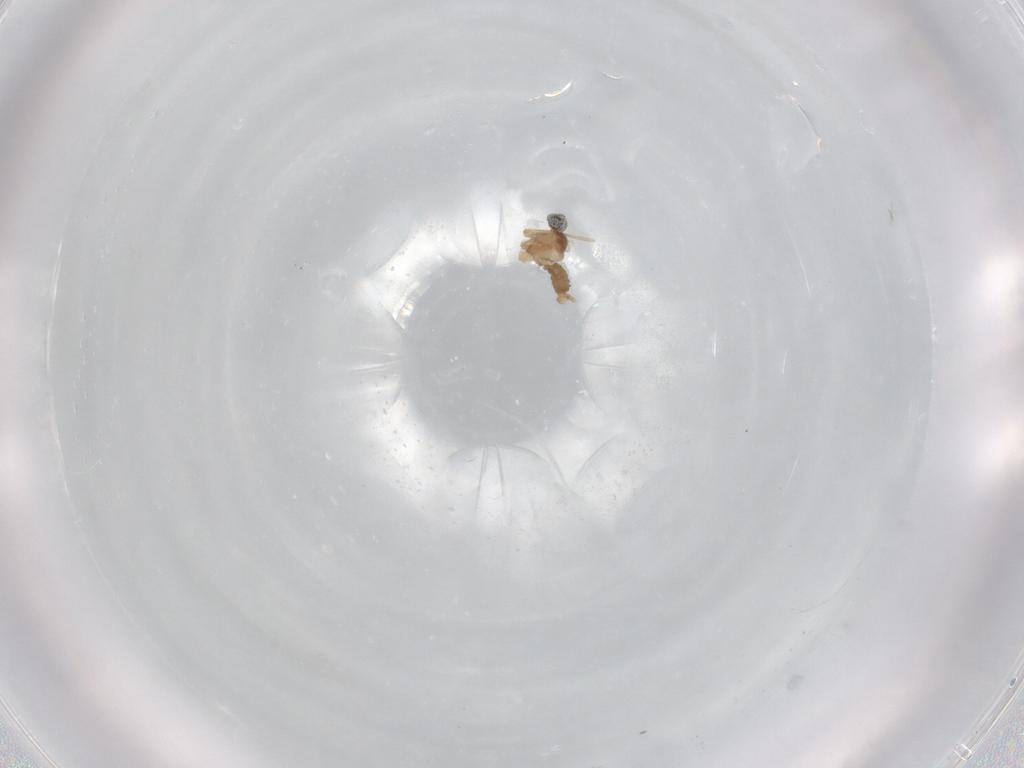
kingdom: Animalia
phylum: Arthropoda
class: Insecta
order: Diptera
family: Cecidomyiidae
